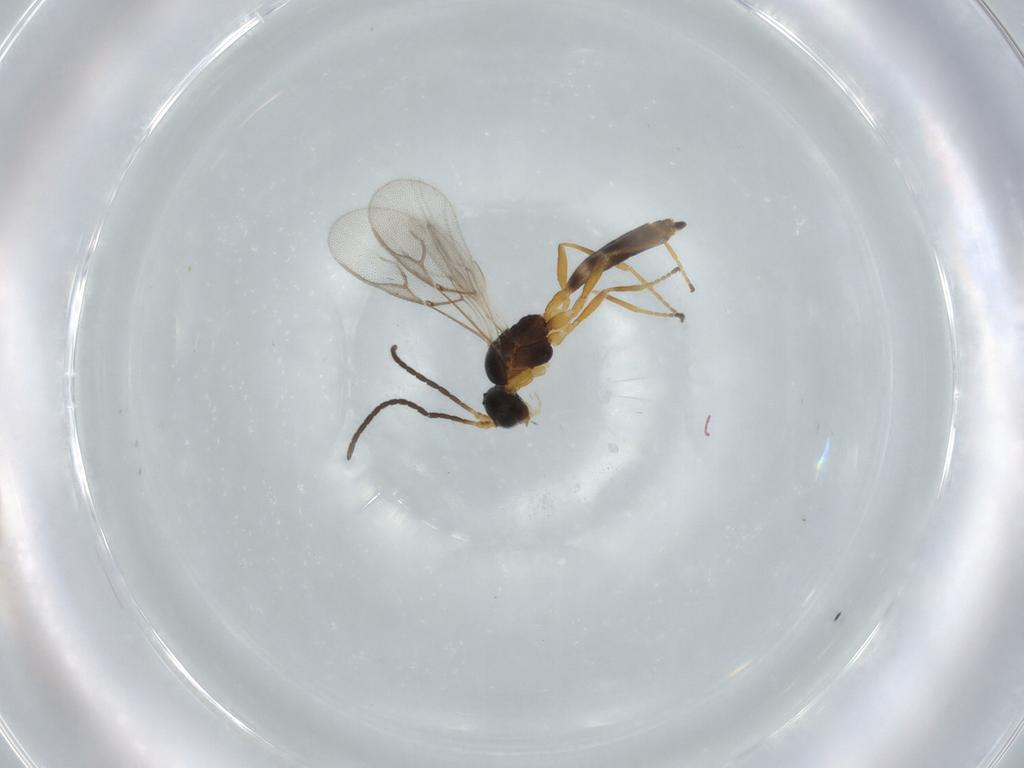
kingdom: Animalia
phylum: Arthropoda
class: Insecta
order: Hymenoptera
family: Braconidae
